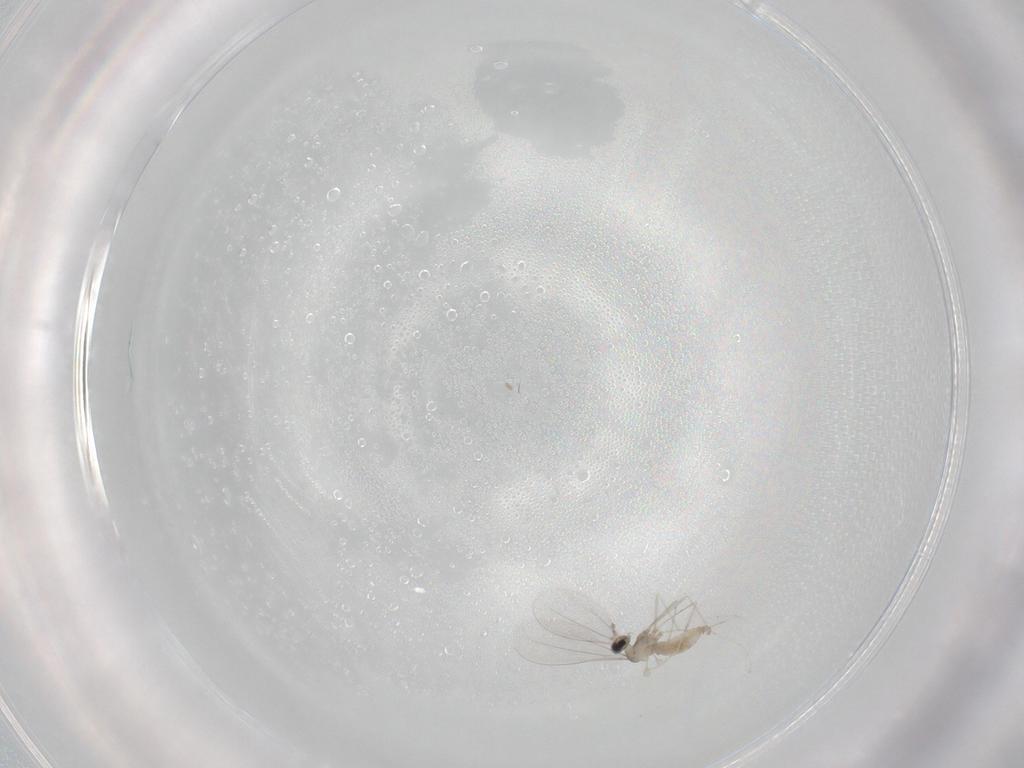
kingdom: Animalia
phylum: Arthropoda
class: Insecta
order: Diptera
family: Cecidomyiidae
